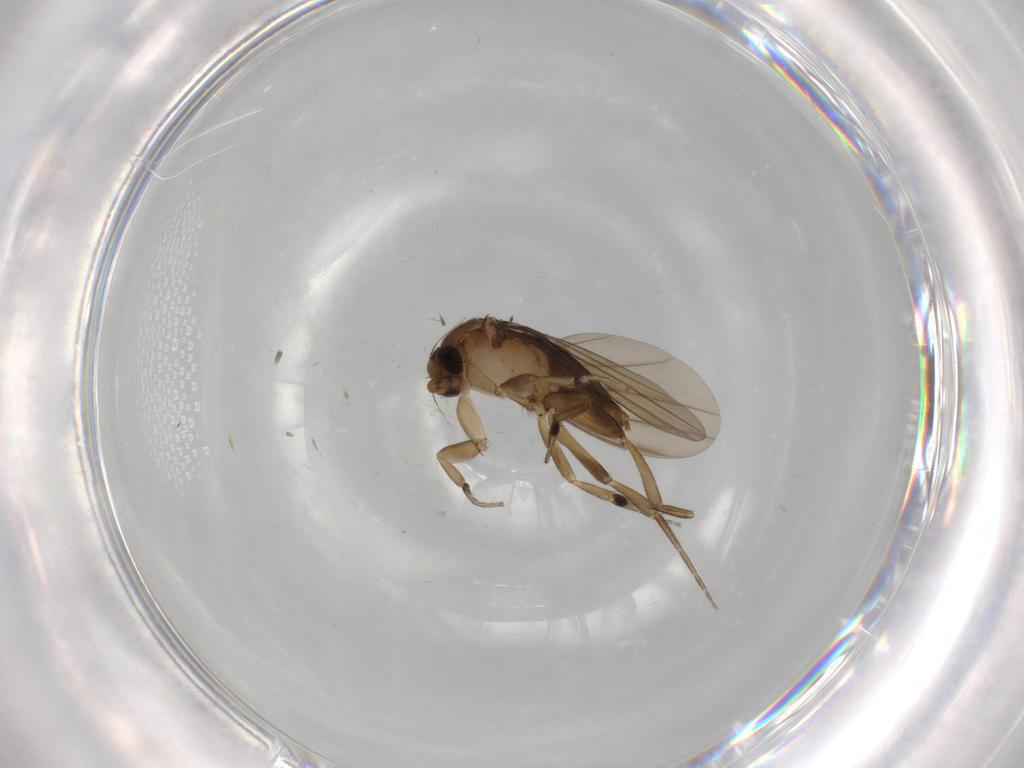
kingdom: Animalia
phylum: Arthropoda
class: Insecta
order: Diptera
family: Phoridae
